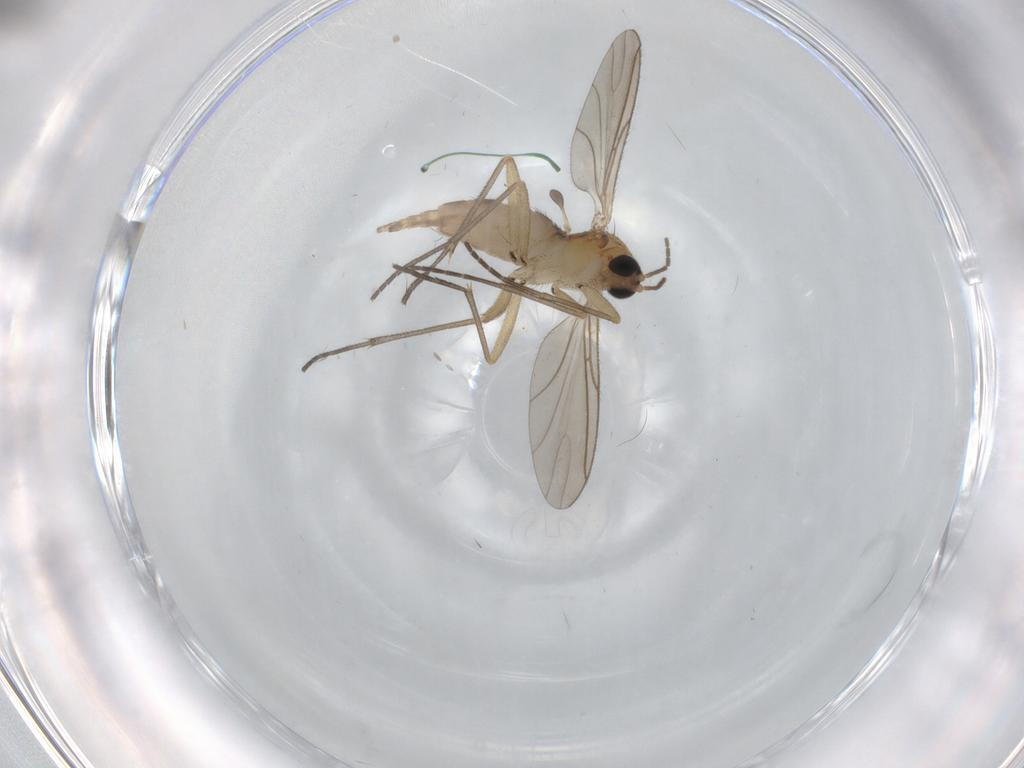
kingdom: Animalia
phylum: Arthropoda
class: Insecta
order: Diptera
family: Sciaridae
